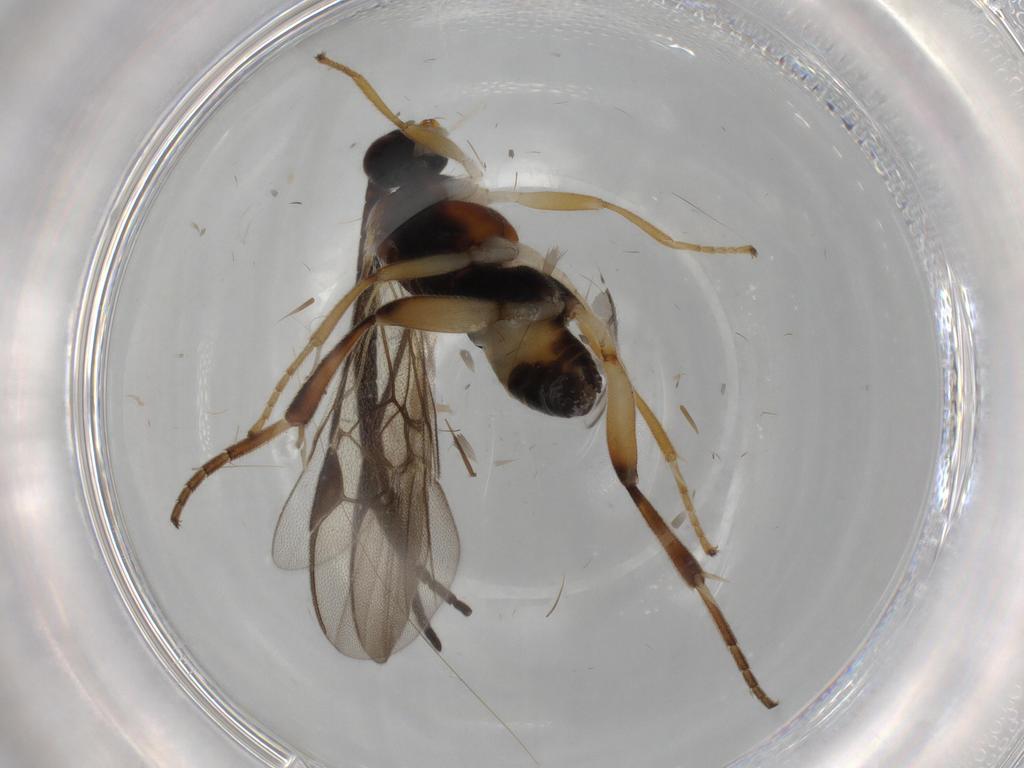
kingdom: Animalia
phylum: Arthropoda
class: Insecta
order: Hymenoptera
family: Braconidae
